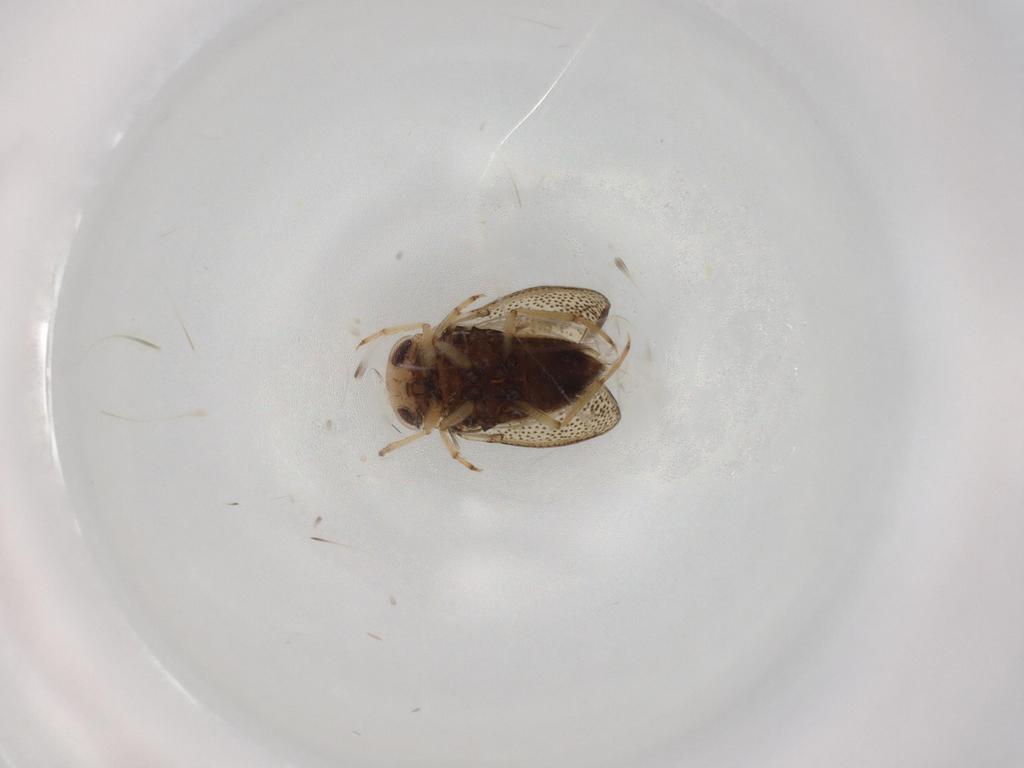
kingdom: Animalia
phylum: Arthropoda
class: Insecta
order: Hemiptera
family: Pleidae
